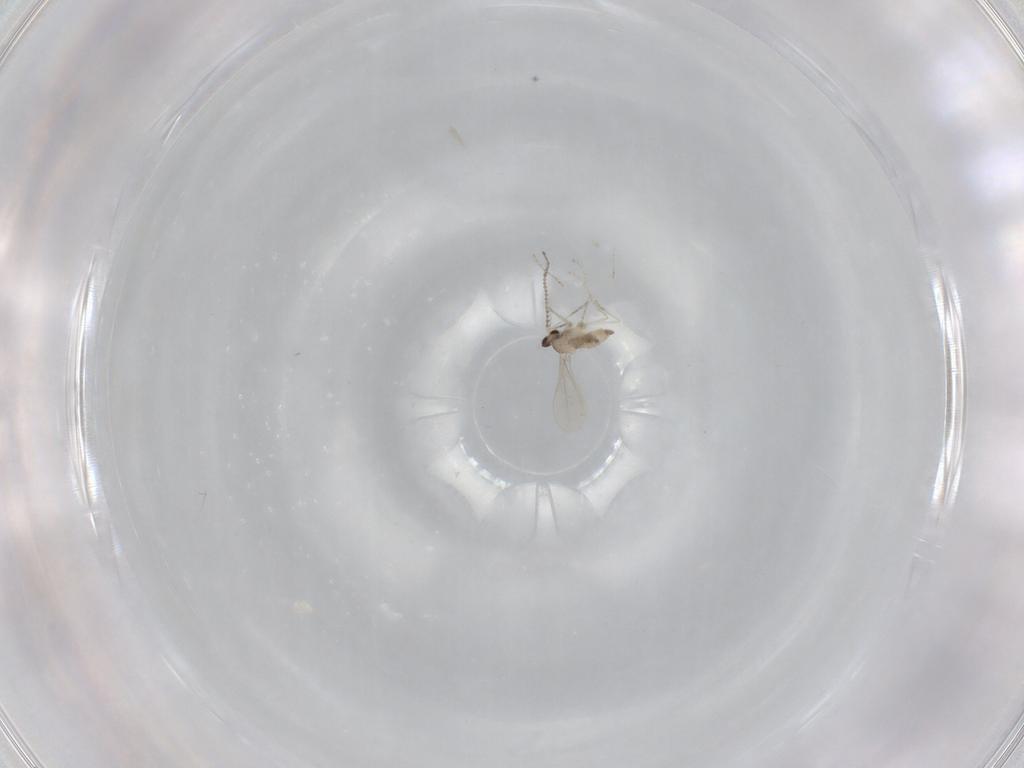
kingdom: Animalia
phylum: Arthropoda
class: Insecta
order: Diptera
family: Cecidomyiidae
